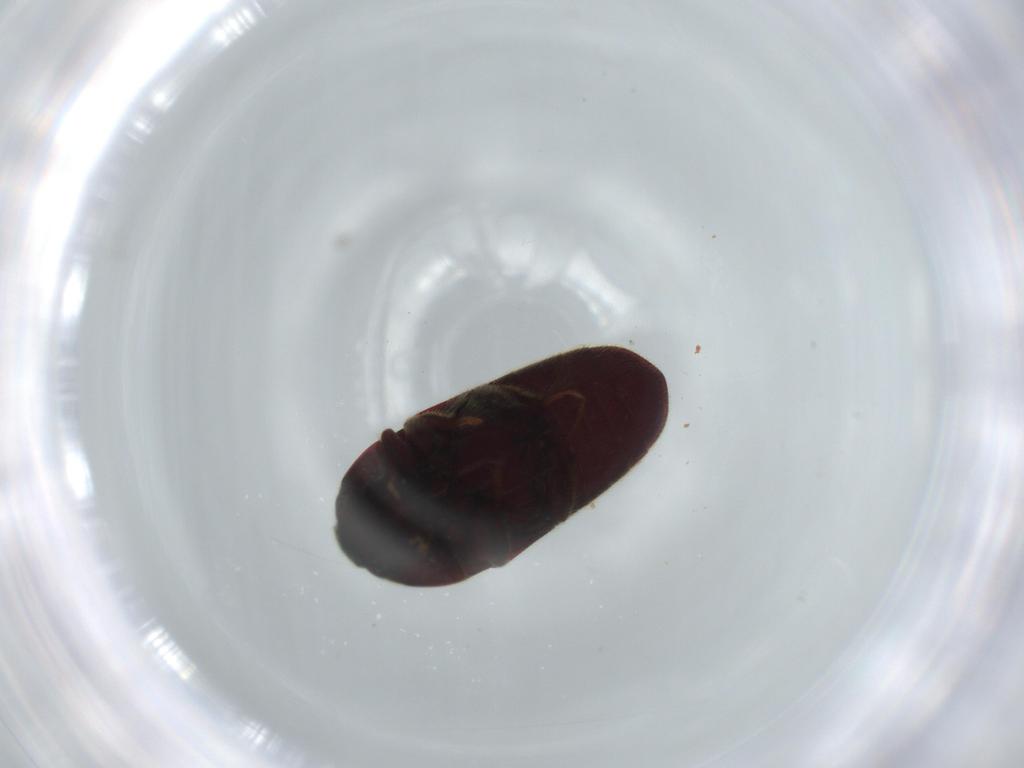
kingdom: Animalia
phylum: Arthropoda
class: Insecta
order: Coleoptera
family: Throscidae
